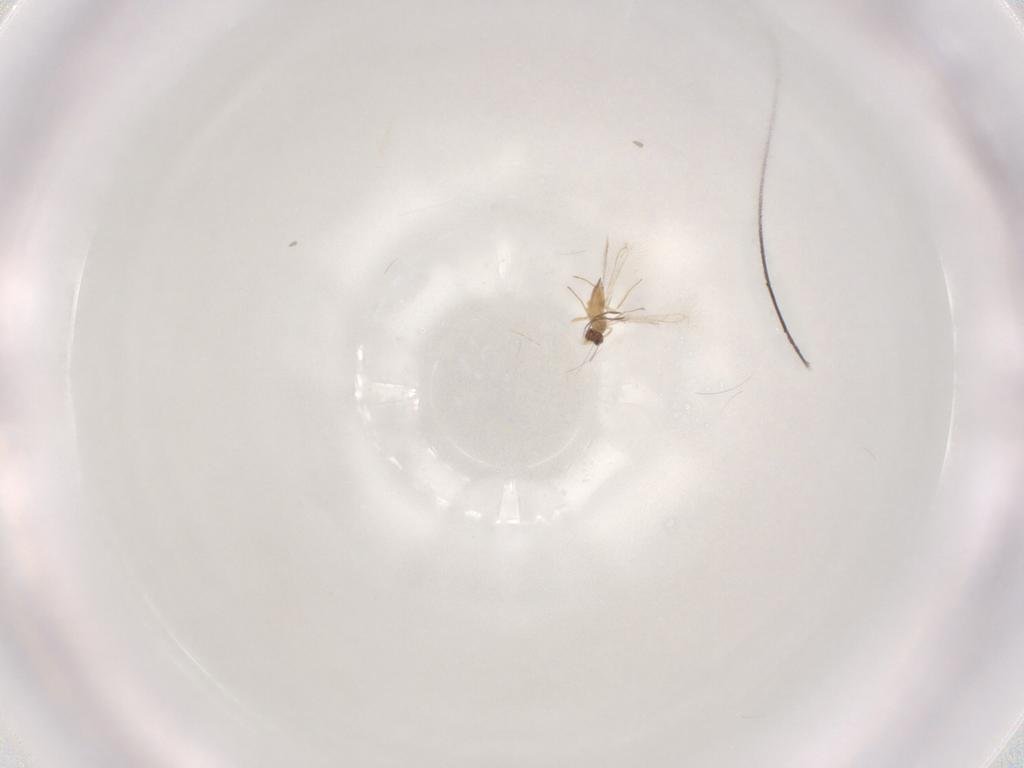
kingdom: Animalia
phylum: Arthropoda
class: Insecta
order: Hymenoptera
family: Mymaridae
